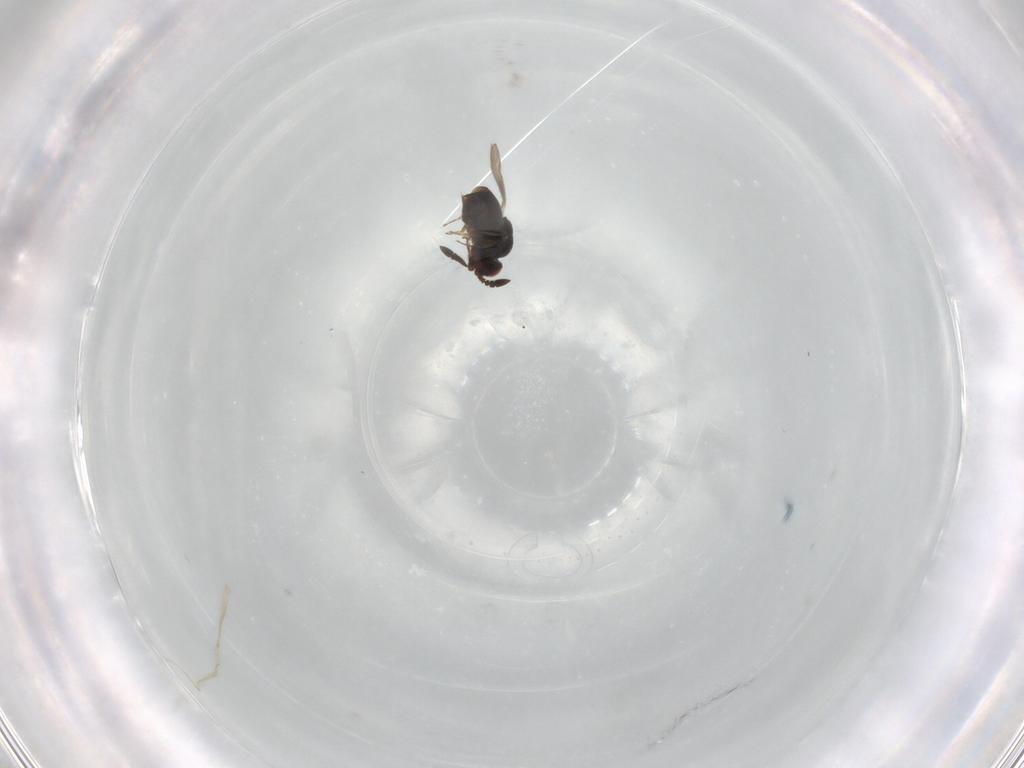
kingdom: Animalia
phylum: Arthropoda
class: Insecta
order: Hymenoptera
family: Ceraphronidae
